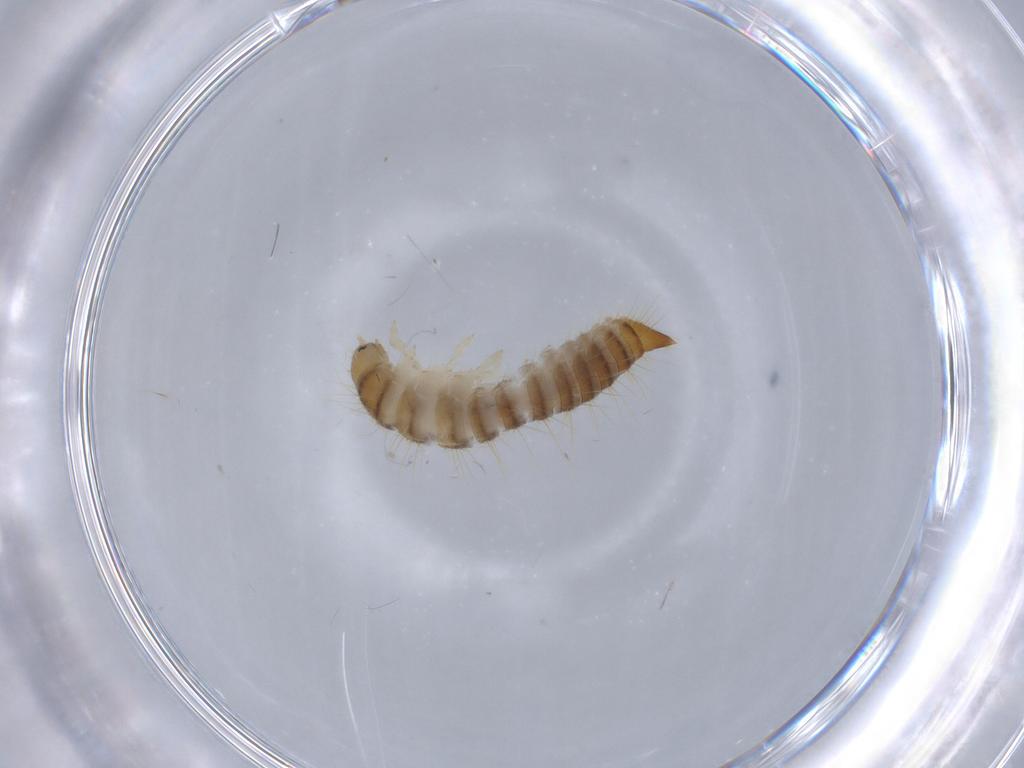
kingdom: Animalia
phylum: Arthropoda
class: Insecta
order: Coleoptera
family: Tenebrionidae
